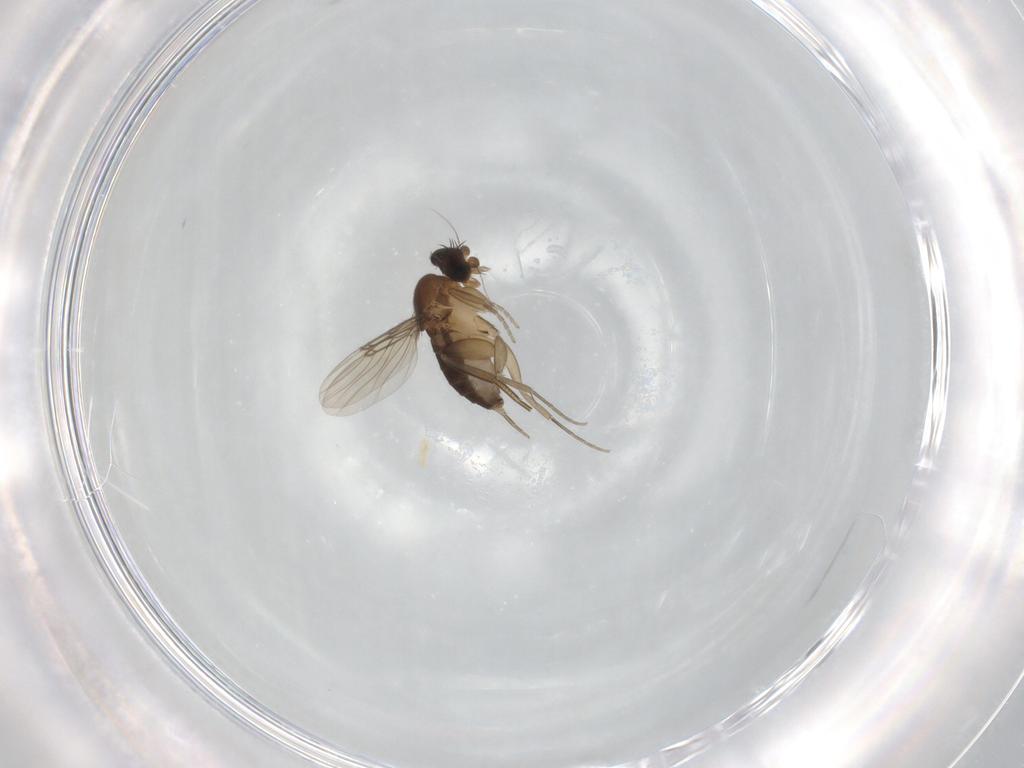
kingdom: Animalia
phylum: Arthropoda
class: Insecta
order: Diptera
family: Phoridae
